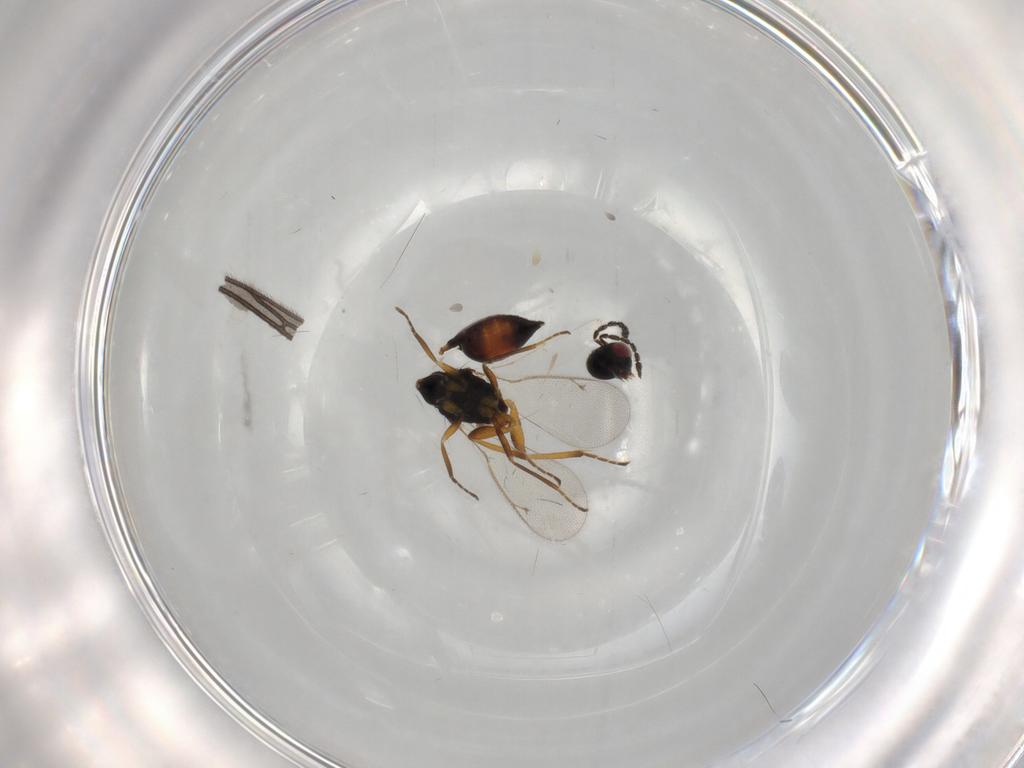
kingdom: Animalia
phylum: Arthropoda
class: Insecta
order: Hymenoptera
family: Eulophidae
